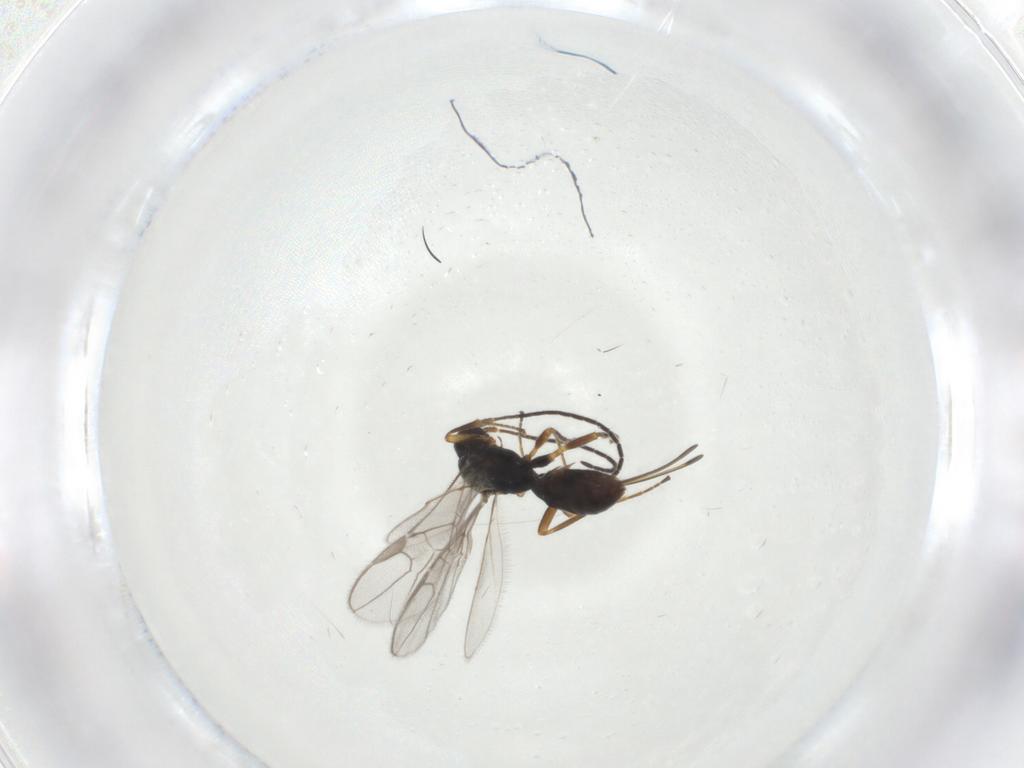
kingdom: Animalia
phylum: Arthropoda
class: Insecta
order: Hymenoptera
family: Braconidae
